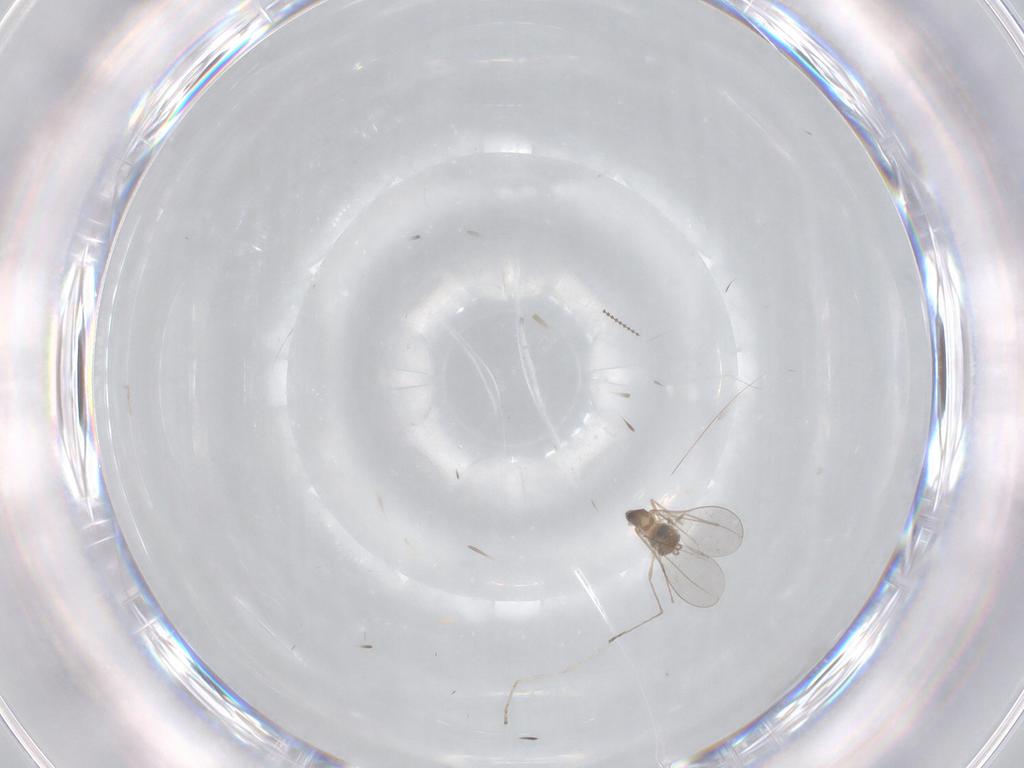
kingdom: Animalia
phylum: Arthropoda
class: Insecta
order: Diptera
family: Cecidomyiidae
